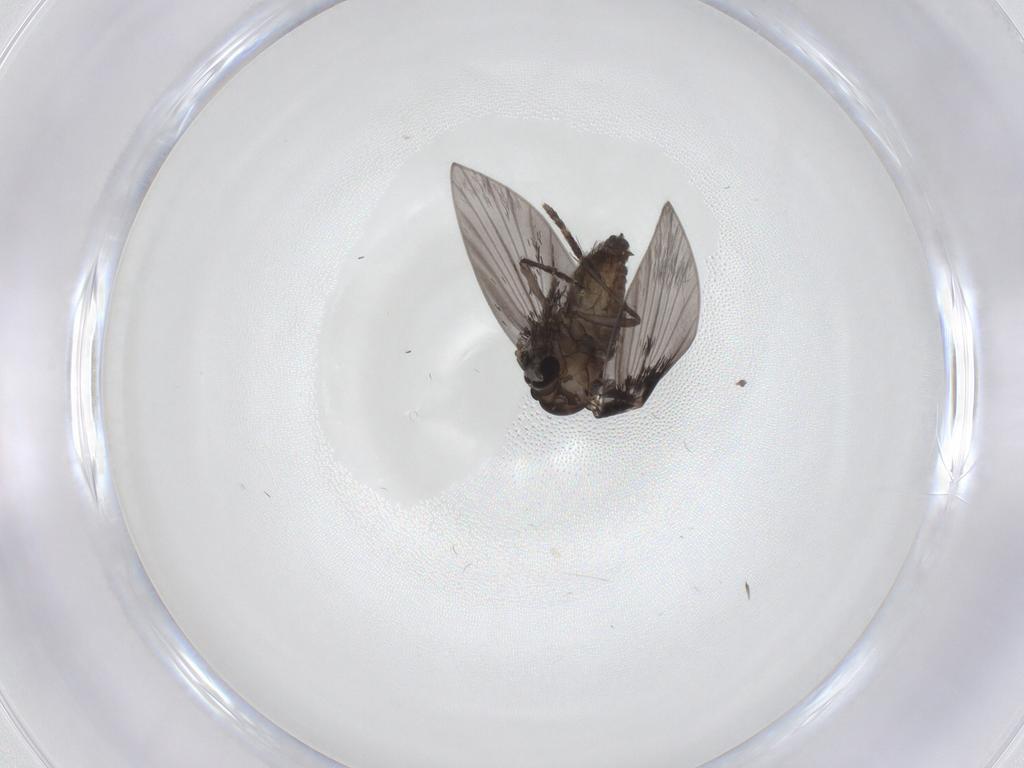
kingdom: Animalia
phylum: Arthropoda
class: Insecta
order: Diptera
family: Psychodidae
